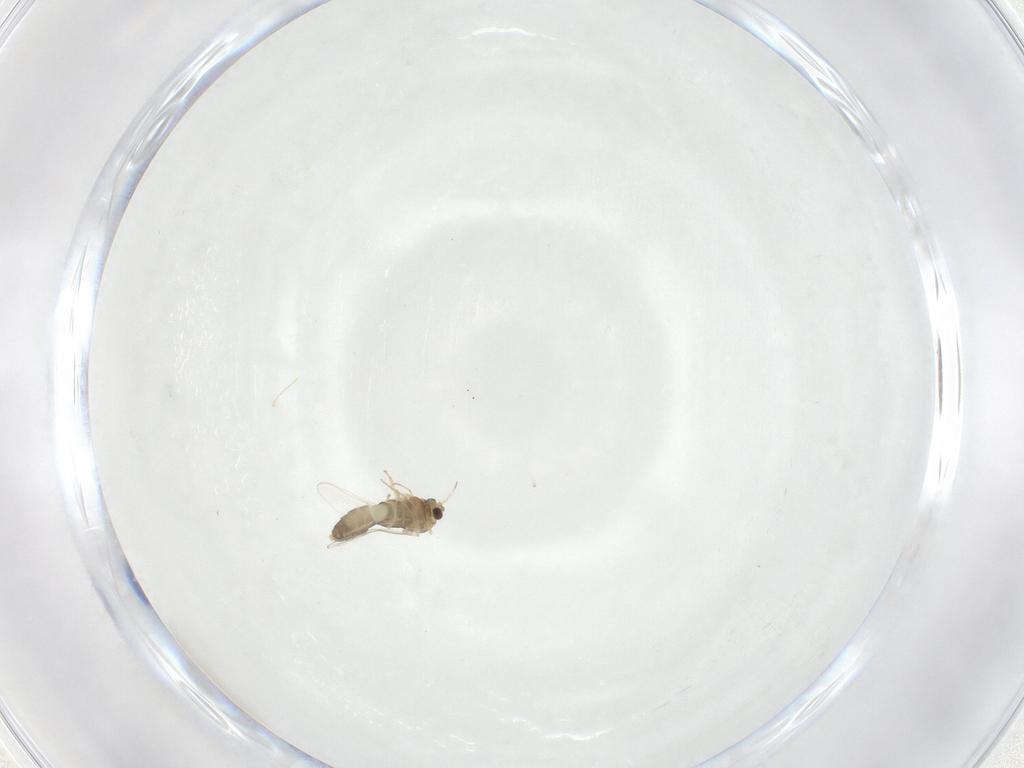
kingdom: Animalia
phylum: Arthropoda
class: Insecta
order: Diptera
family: Chironomidae
